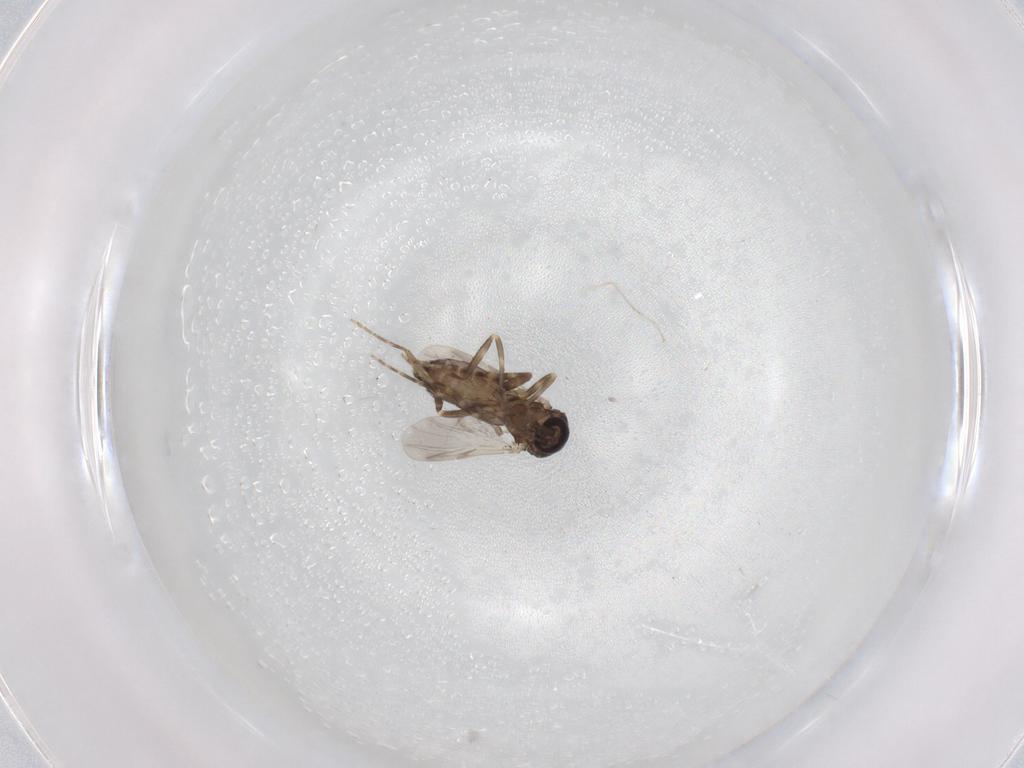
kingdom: Animalia
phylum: Arthropoda
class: Insecta
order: Diptera
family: Ceratopogonidae
